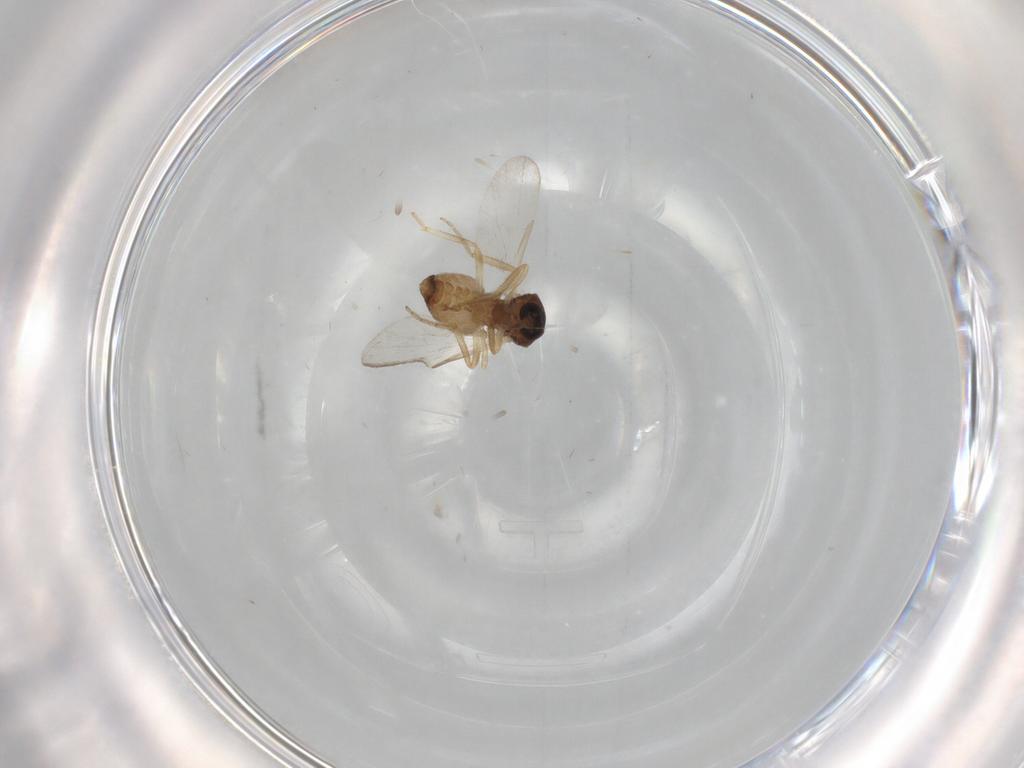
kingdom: Animalia
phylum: Arthropoda
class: Insecta
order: Diptera
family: Ceratopogonidae
